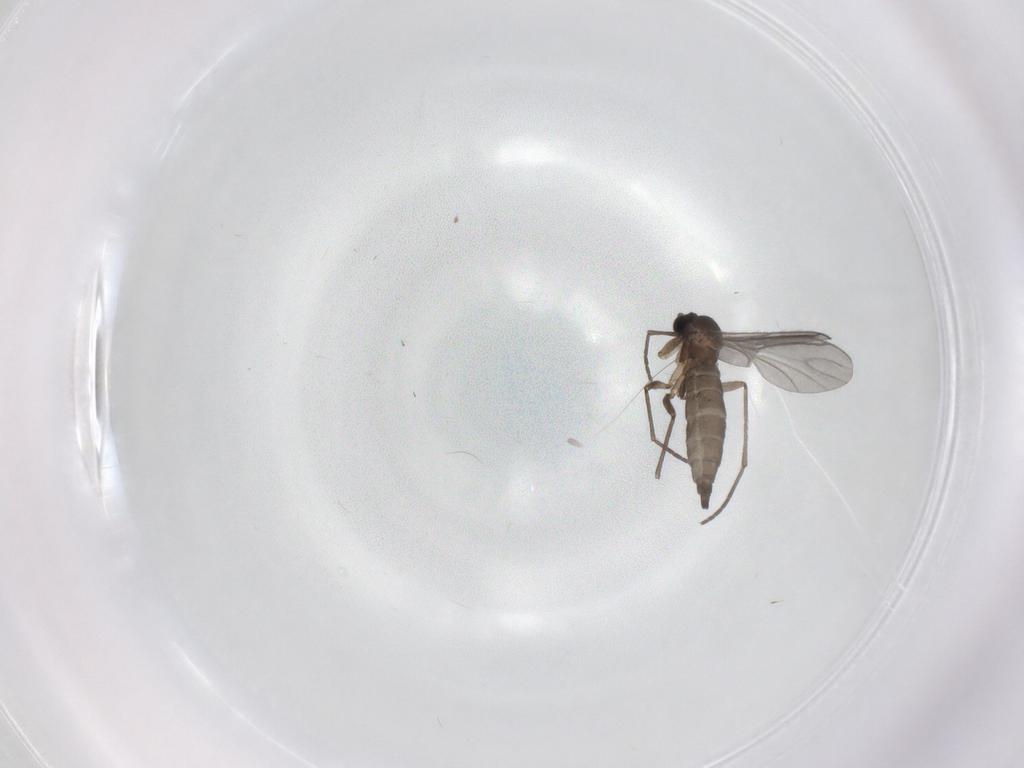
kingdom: Animalia
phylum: Arthropoda
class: Insecta
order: Diptera
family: Sciaridae
